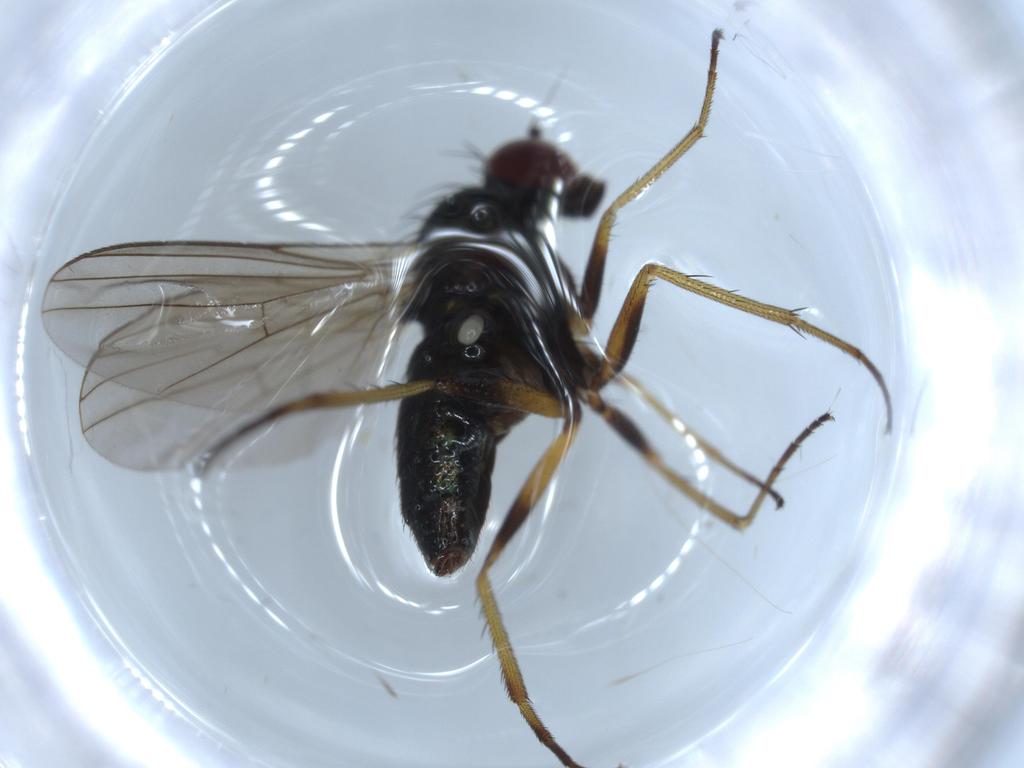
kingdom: Animalia
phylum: Arthropoda
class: Insecta
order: Diptera
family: Dolichopodidae
